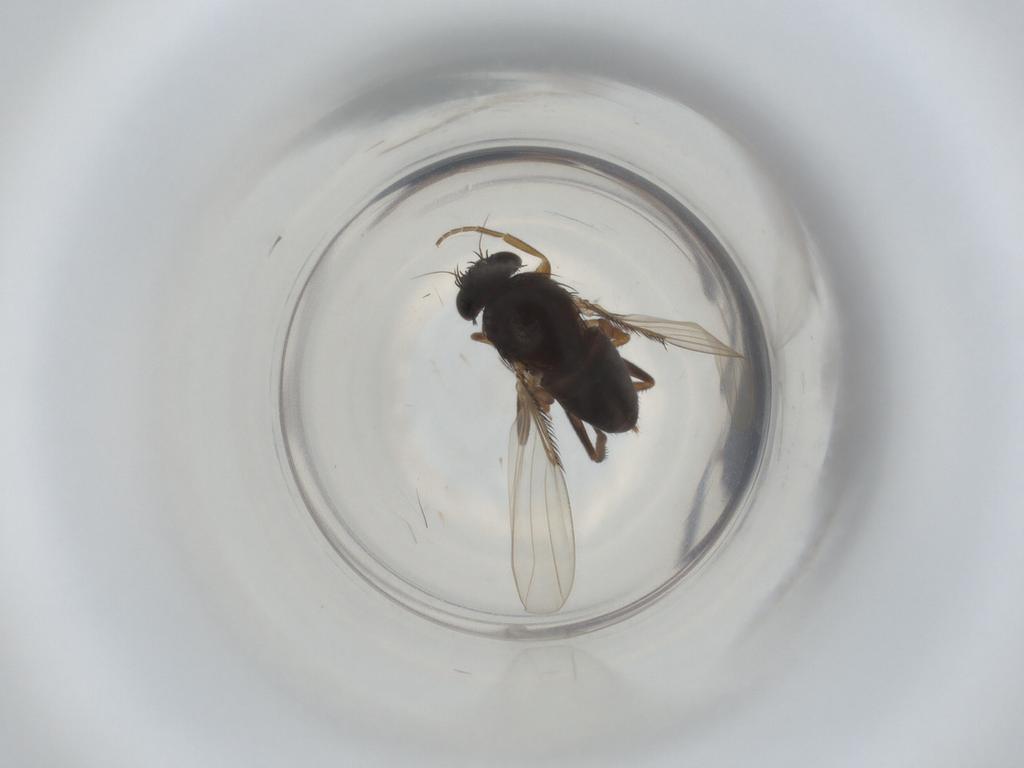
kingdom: Animalia
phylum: Arthropoda
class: Insecta
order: Diptera
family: Phoridae
